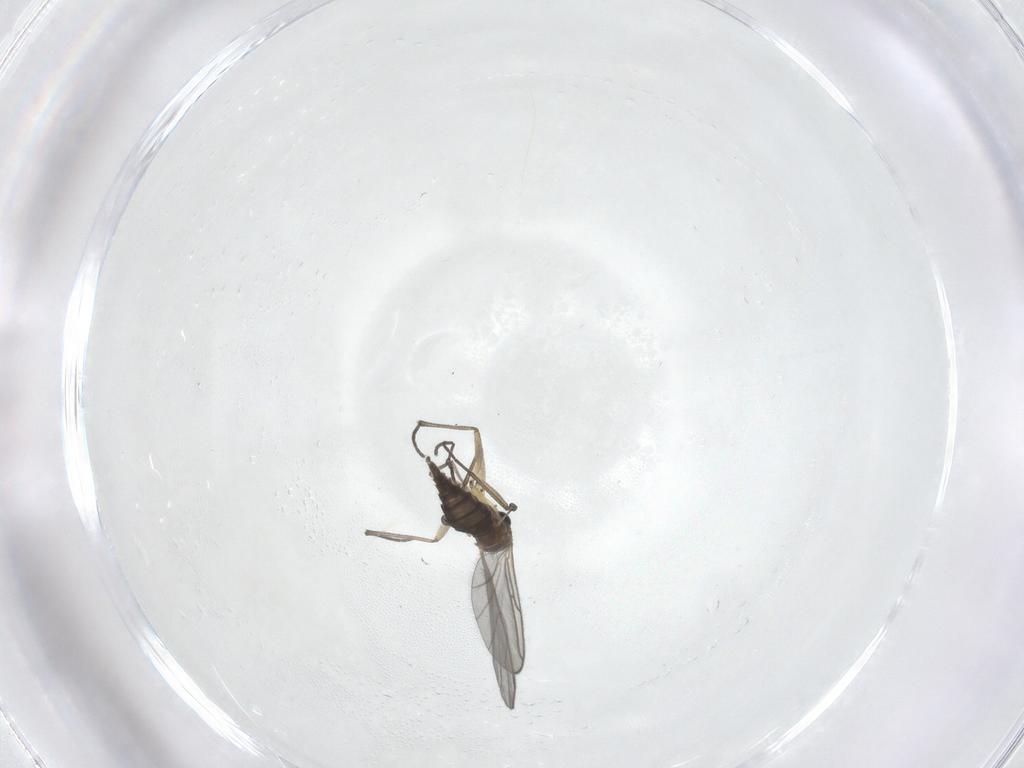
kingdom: Animalia
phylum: Arthropoda
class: Insecta
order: Diptera
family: Sciaridae
